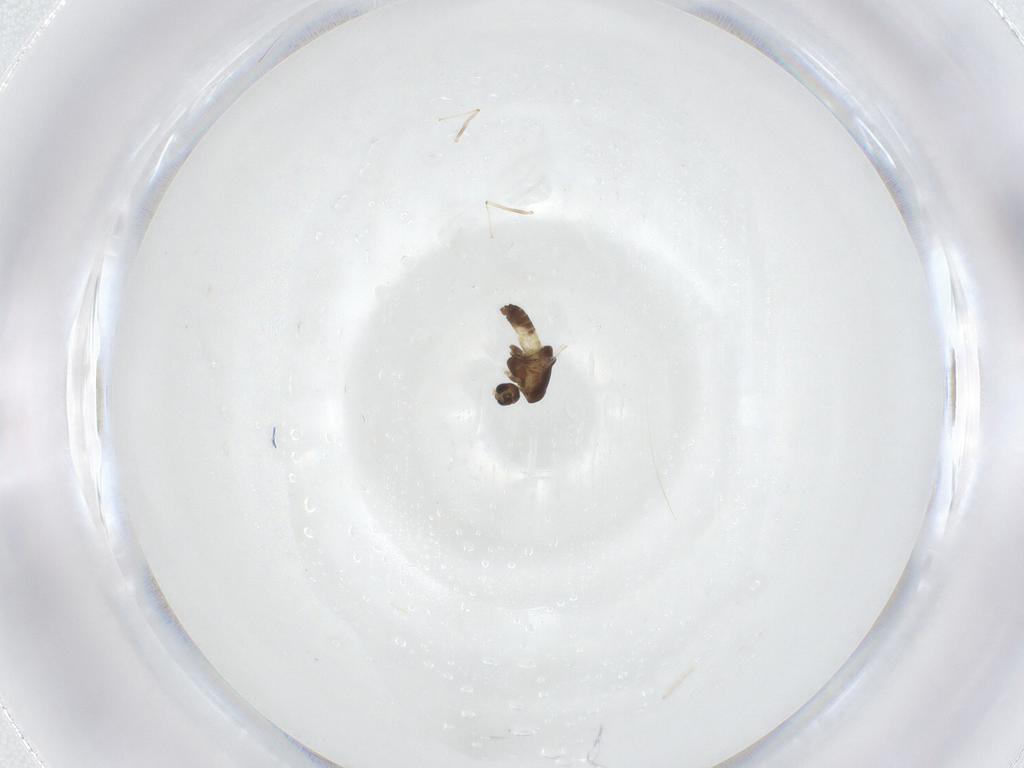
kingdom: Animalia
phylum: Arthropoda
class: Insecta
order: Diptera
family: Chironomidae
